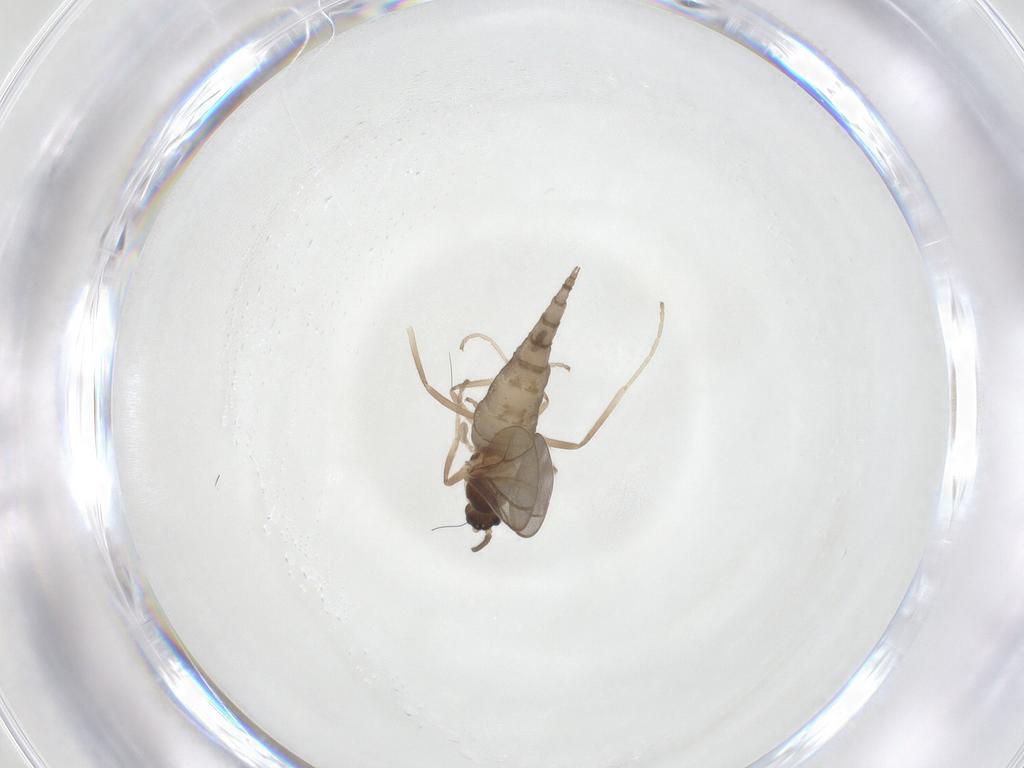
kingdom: Animalia
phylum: Arthropoda
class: Insecta
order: Diptera
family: Cecidomyiidae
